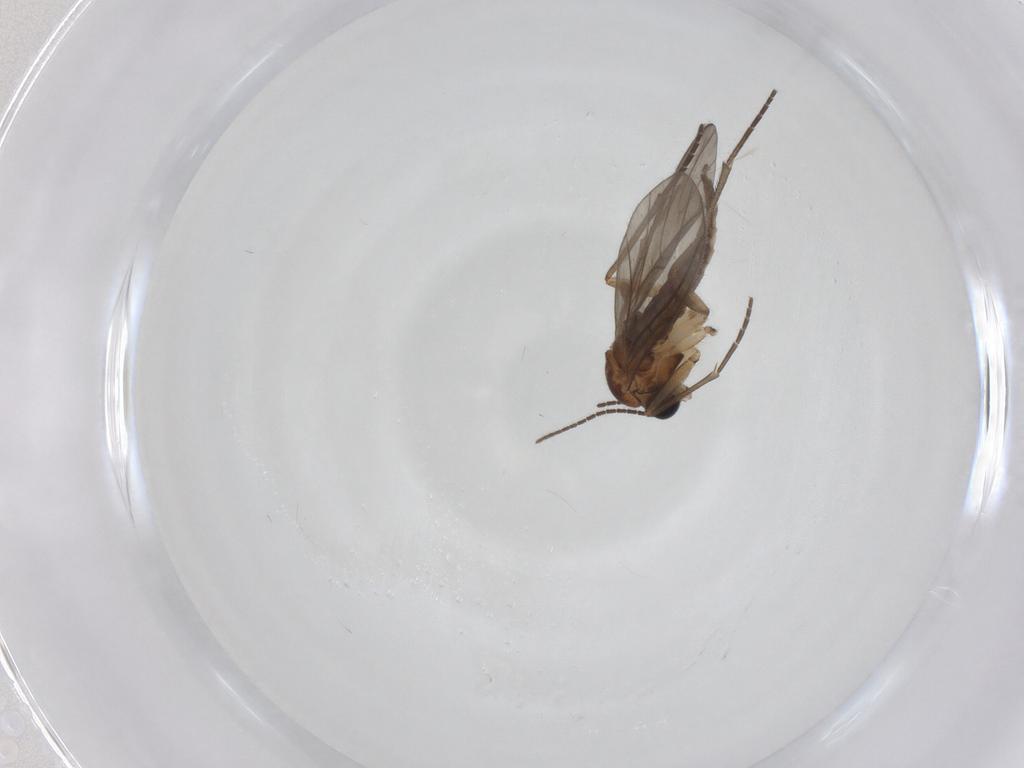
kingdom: Animalia
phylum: Arthropoda
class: Insecta
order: Diptera
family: Sciaridae
